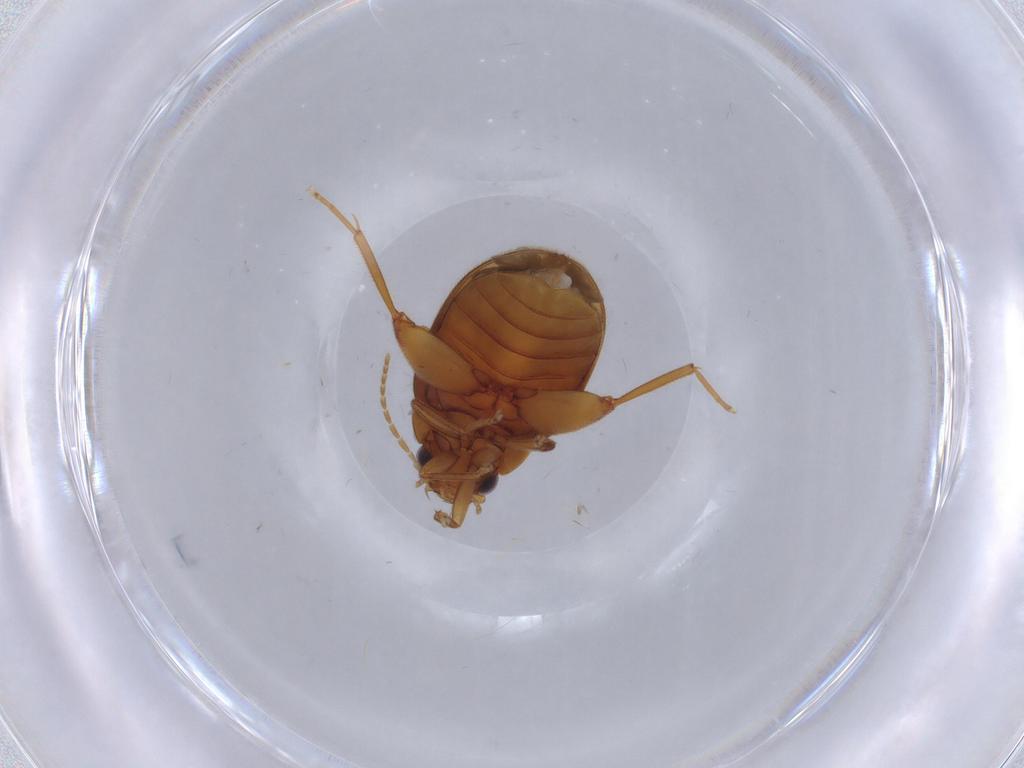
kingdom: Animalia
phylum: Arthropoda
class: Insecta
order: Coleoptera
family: Scirtidae
